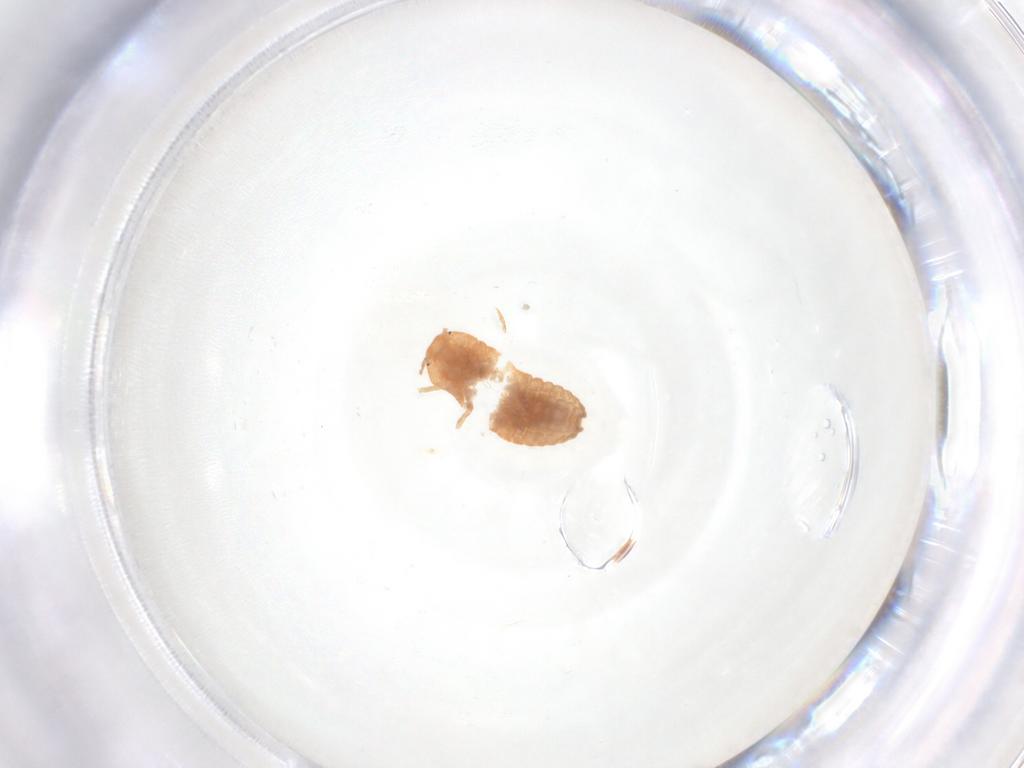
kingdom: Animalia
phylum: Arthropoda
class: Insecta
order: Hemiptera
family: Pseudococcidae
